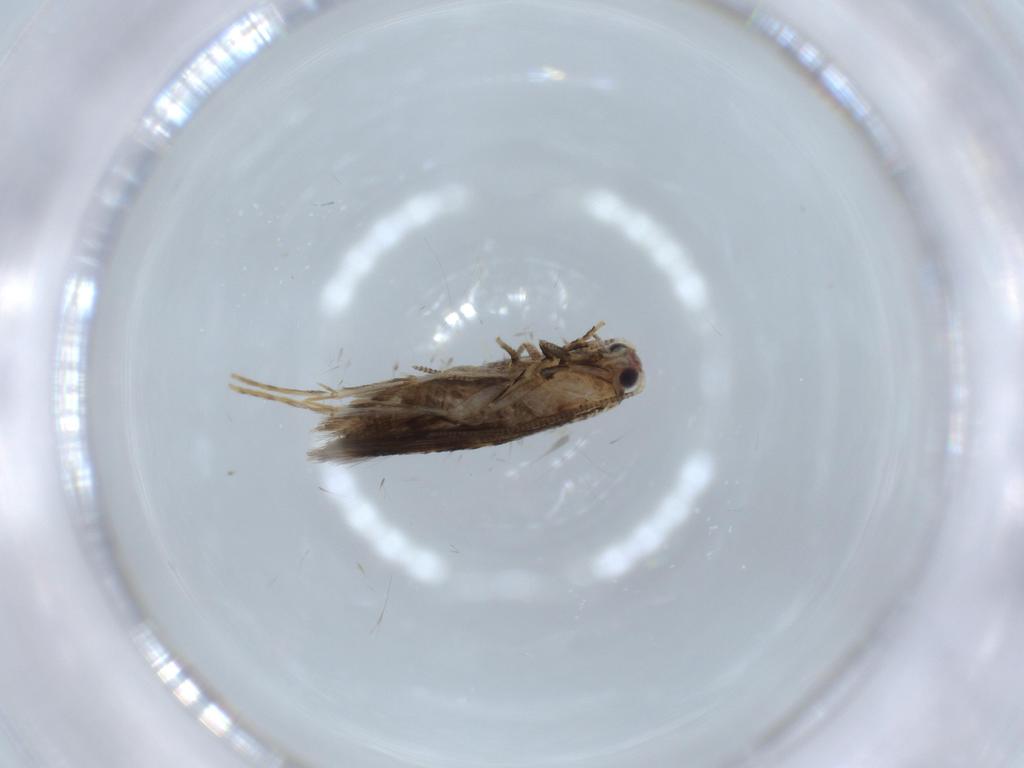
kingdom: Animalia
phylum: Arthropoda
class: Insecta
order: Lepidoptera
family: Tineidae
